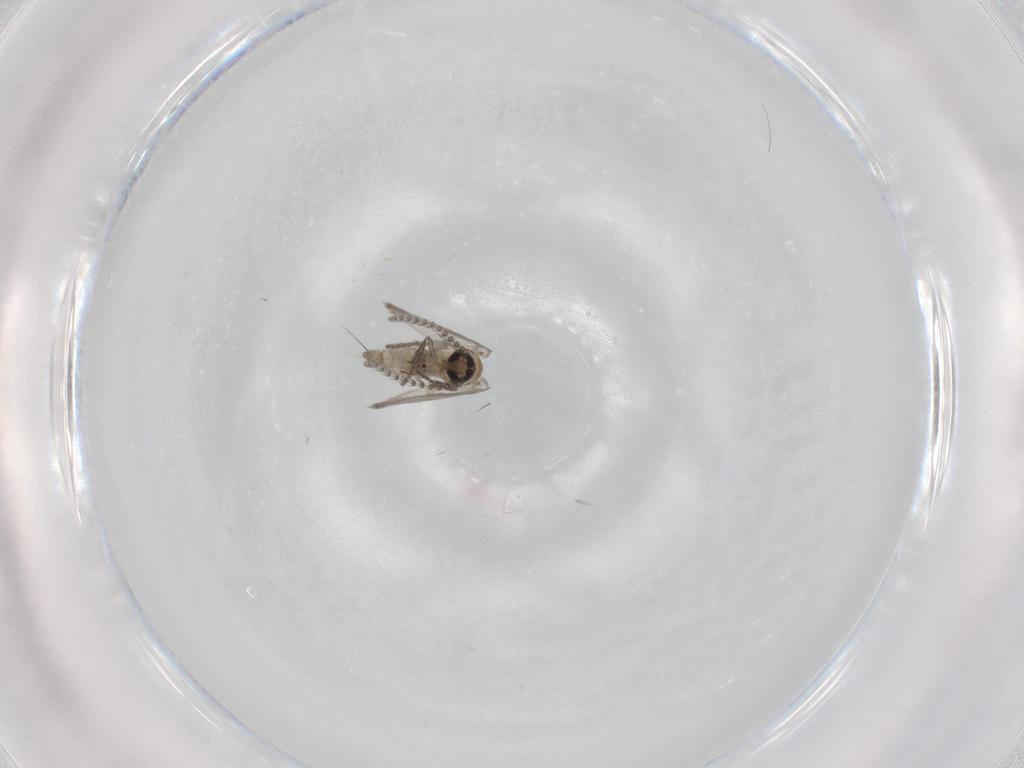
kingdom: Animalia
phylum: Arthropoda
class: Insecta
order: Diptera
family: Psychodidae
